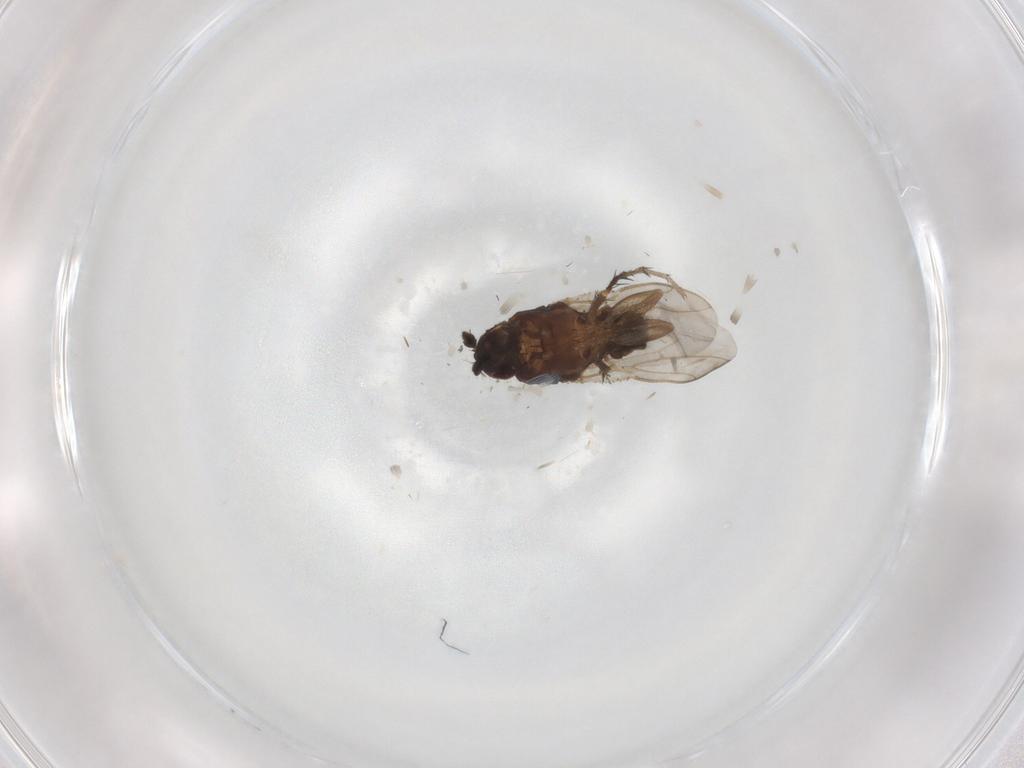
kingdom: Animalia
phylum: Arthropoda
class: Insecta
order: Diptera
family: Sphaeroceridae
